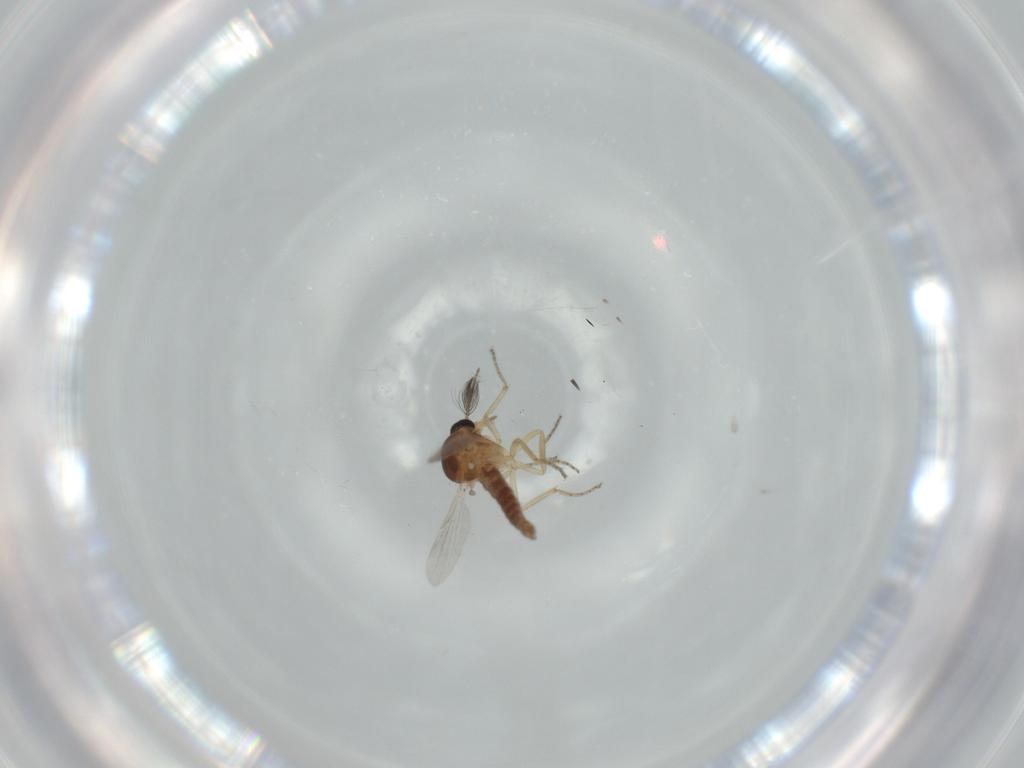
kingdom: Animalia
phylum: Arthropoda
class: Insecta
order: Diptera
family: Ceratopogonidae
